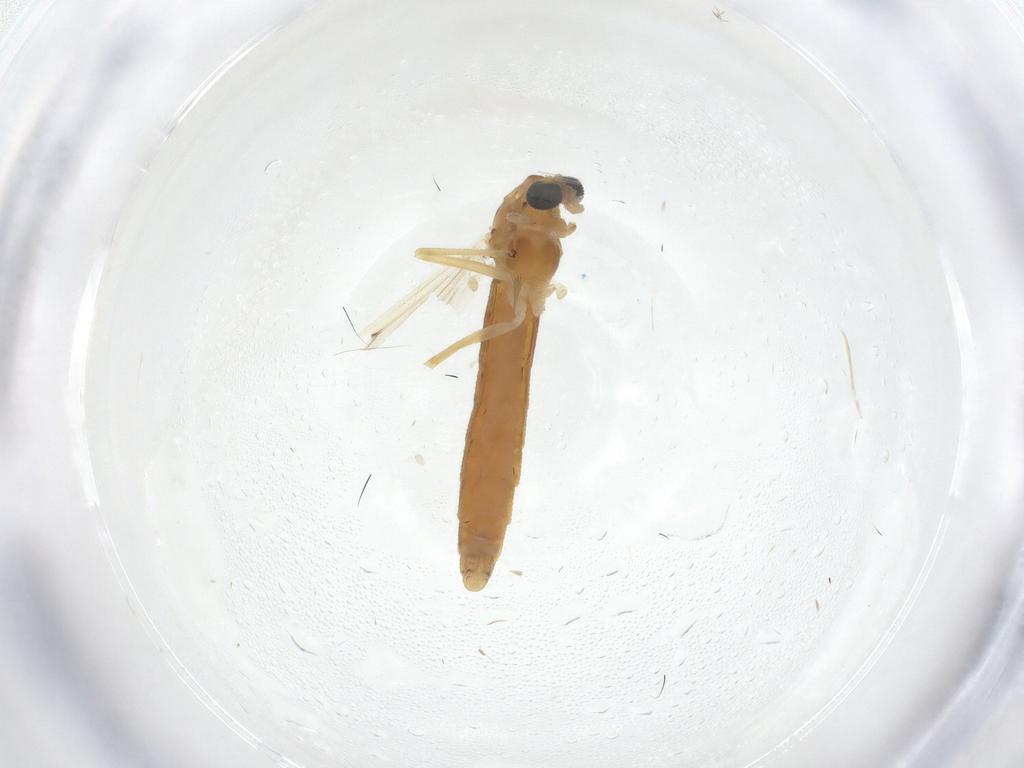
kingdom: Animalia
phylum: Arthropoda
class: Insecta
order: Diptera
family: Chironomidae
